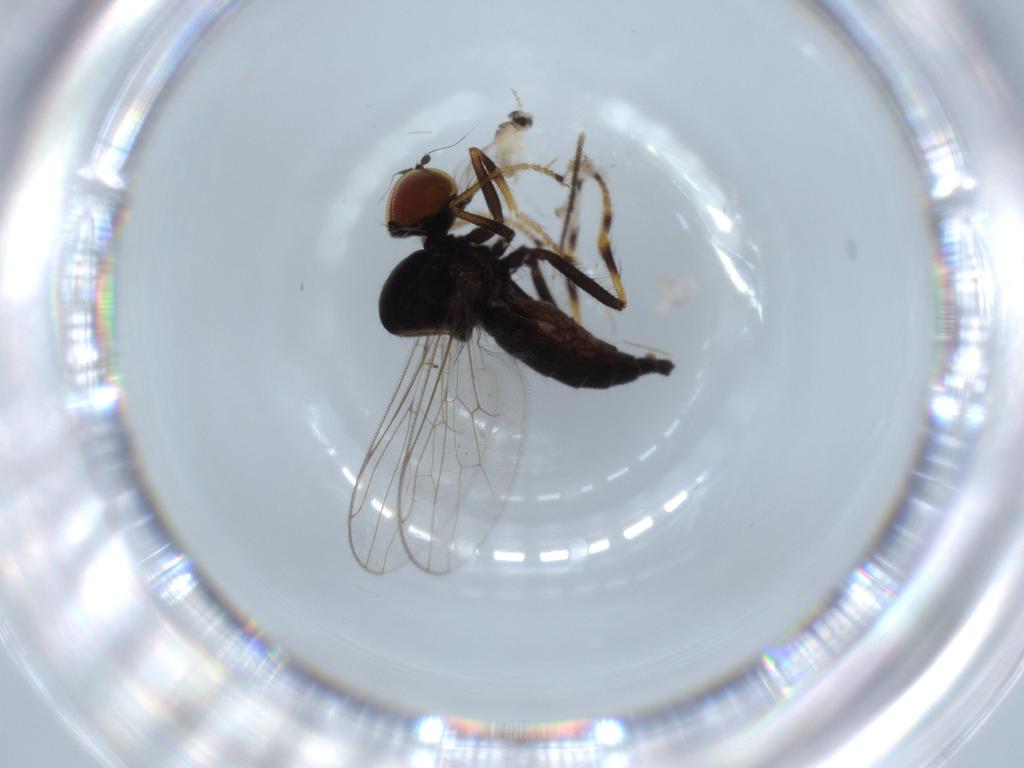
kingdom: Animalia
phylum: Arthropoda
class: Insecta
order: Diptera
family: Hybotidae
